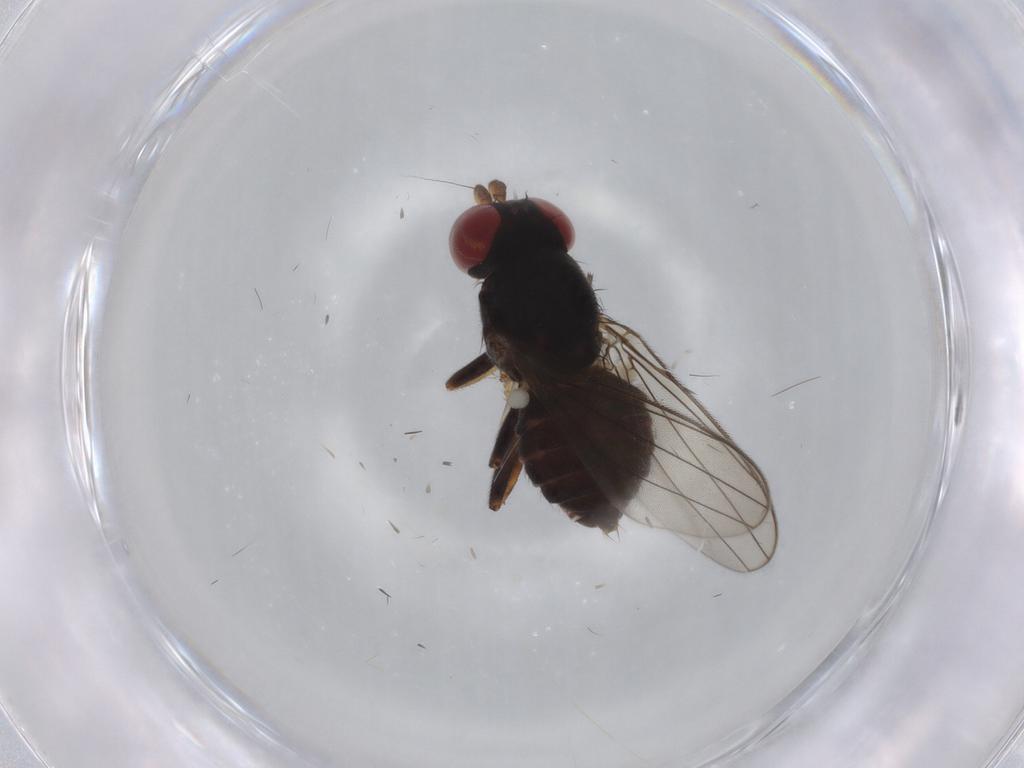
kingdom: Animalia
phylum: Arthropoda
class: Insecta
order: Diptera
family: Aulacigastridae
